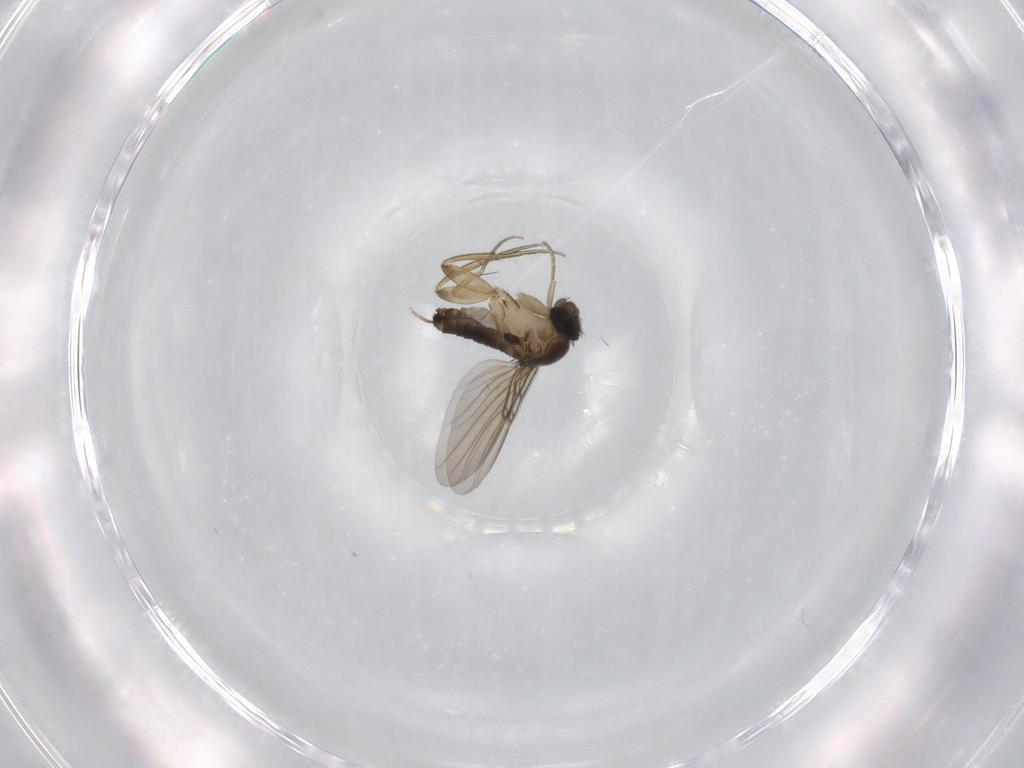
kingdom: Animalia
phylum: Arthropoda
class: Insecta
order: Diptera
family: Phoridae
